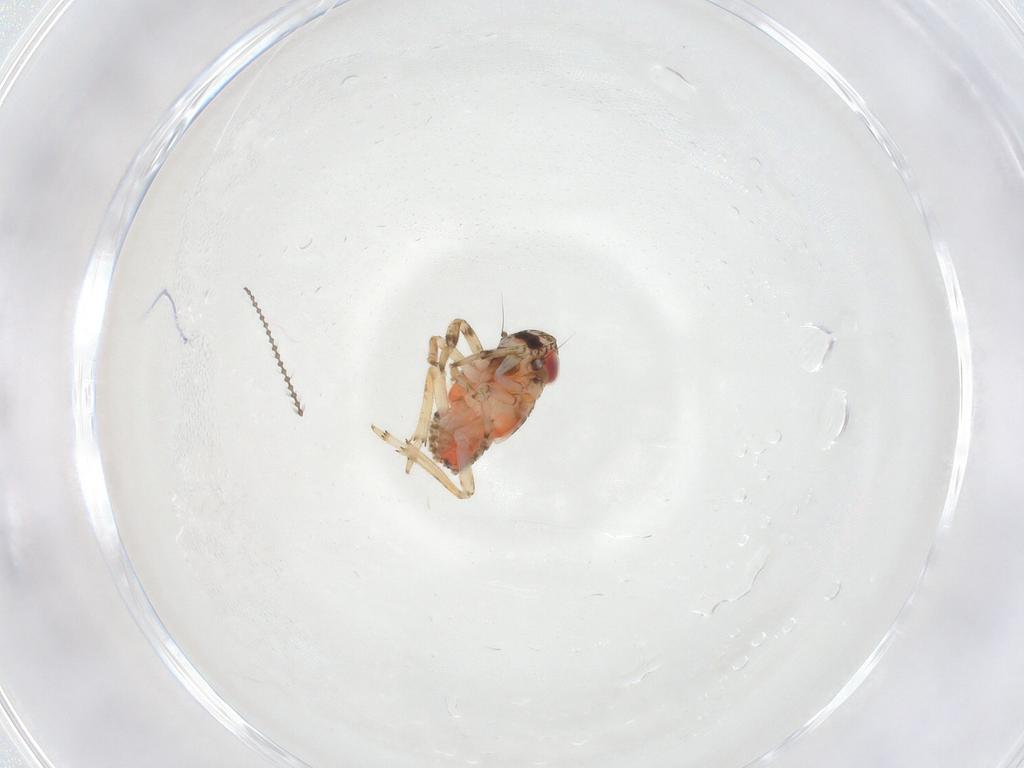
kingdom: Animalia
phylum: Arthropoda
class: Insecta
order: Hemiptera
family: Issidae
